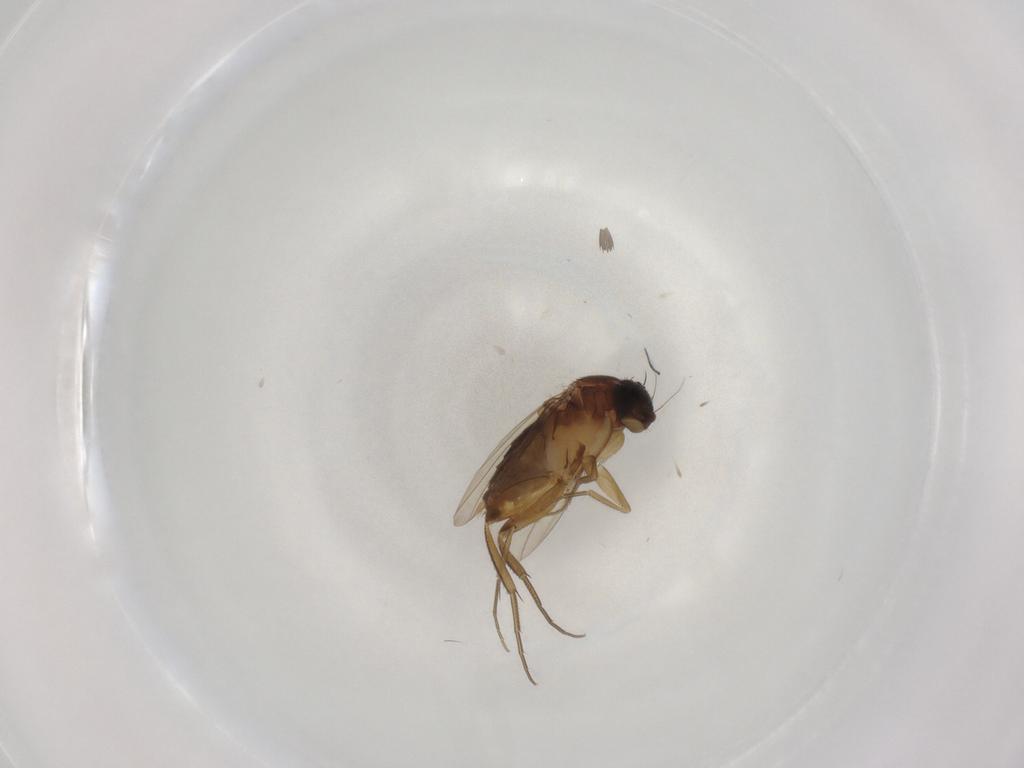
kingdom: Animalia
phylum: Arthropoda
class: Insecta
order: Diptera
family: Phoridae
